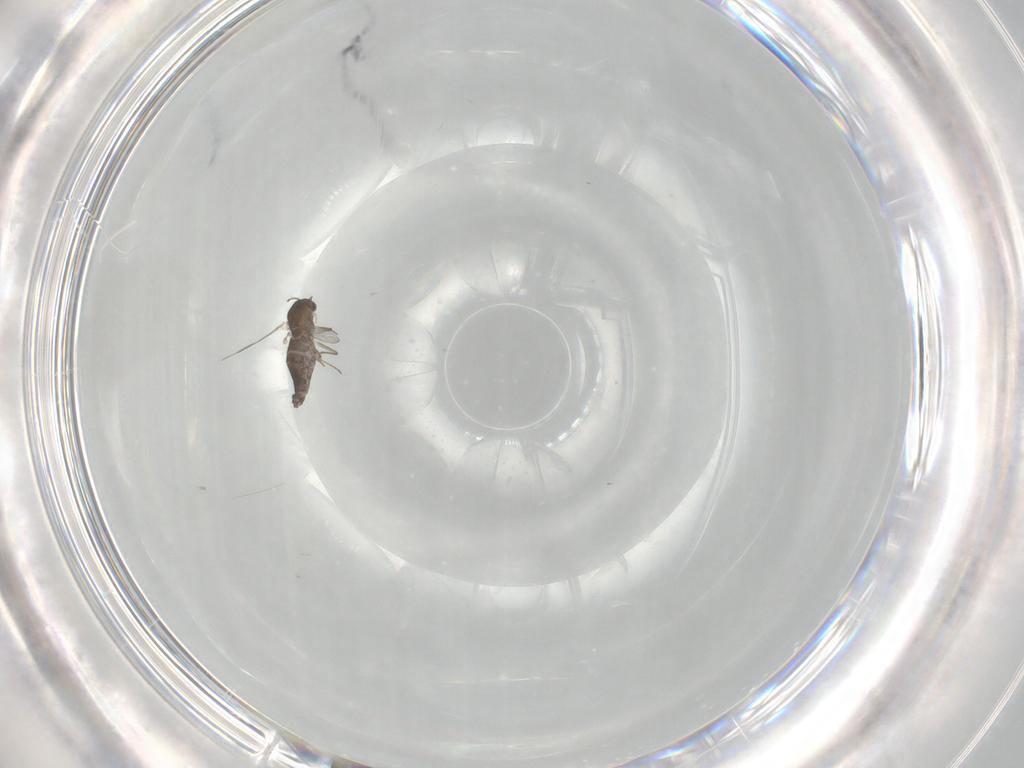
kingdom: Animalia
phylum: Arthropoda
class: Insecta
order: Diptera
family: Chironomidae
